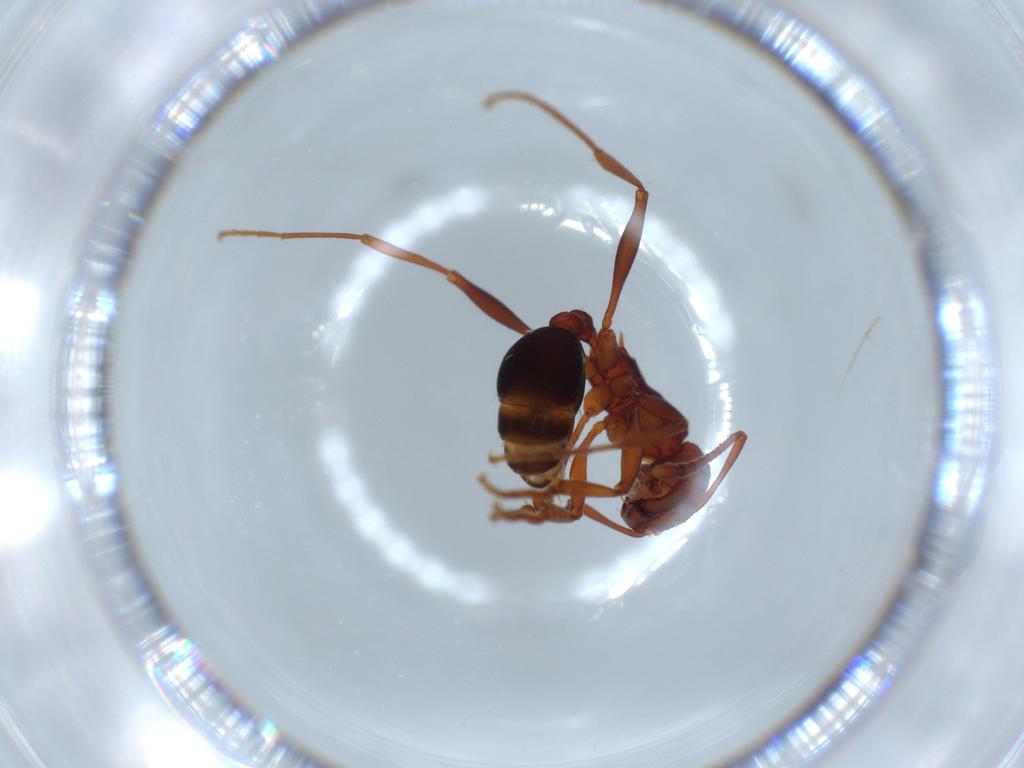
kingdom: Animalia
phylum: Arthropoda
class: Insecta
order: Hymenoptera
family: Formicidae
